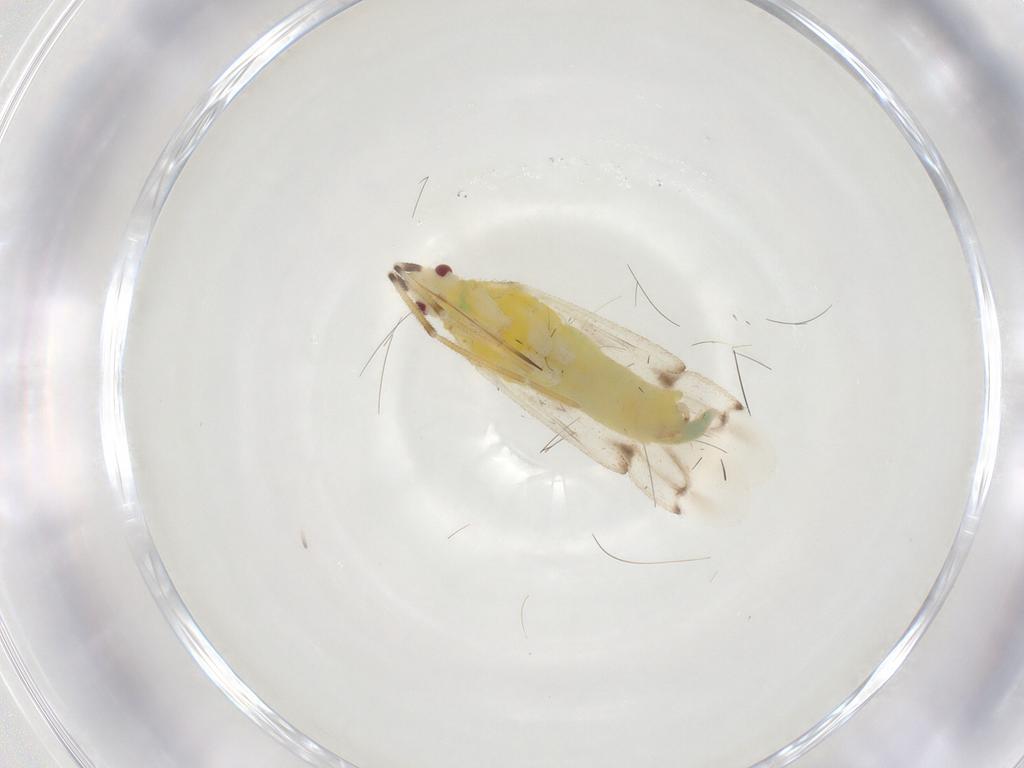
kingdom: Animalia
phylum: Arthropoda
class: Insecta
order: Hemiptera
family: Miridae
